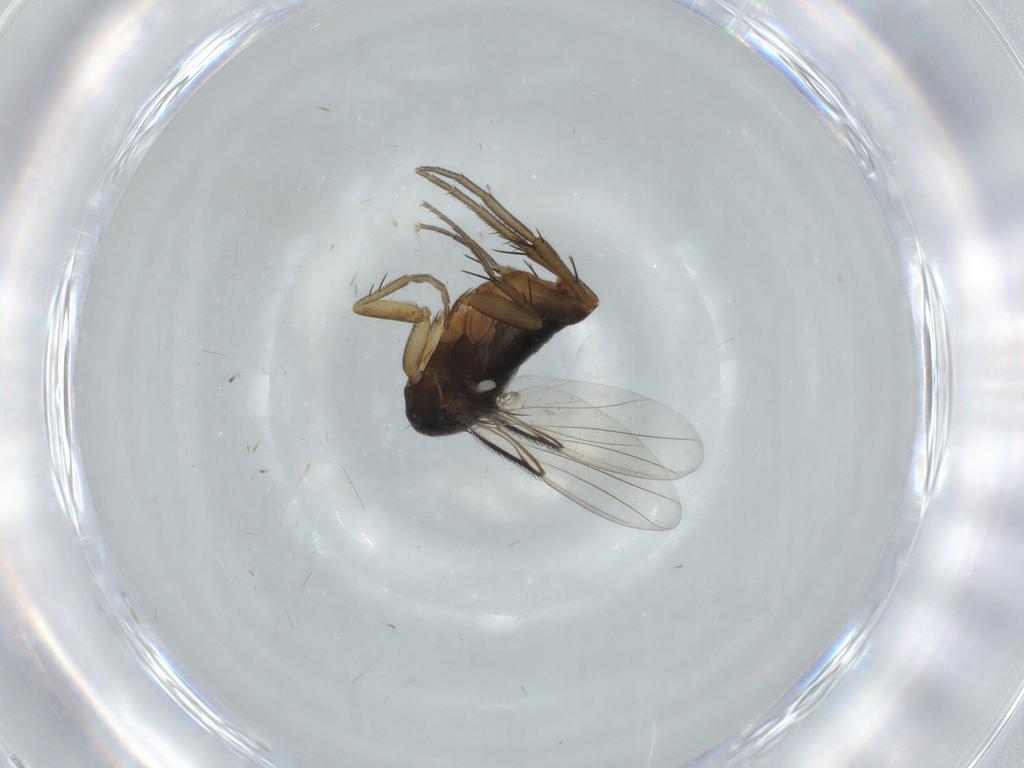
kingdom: Animalia
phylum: Arthropoda
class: Insecta
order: Diptera
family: Phoridae
